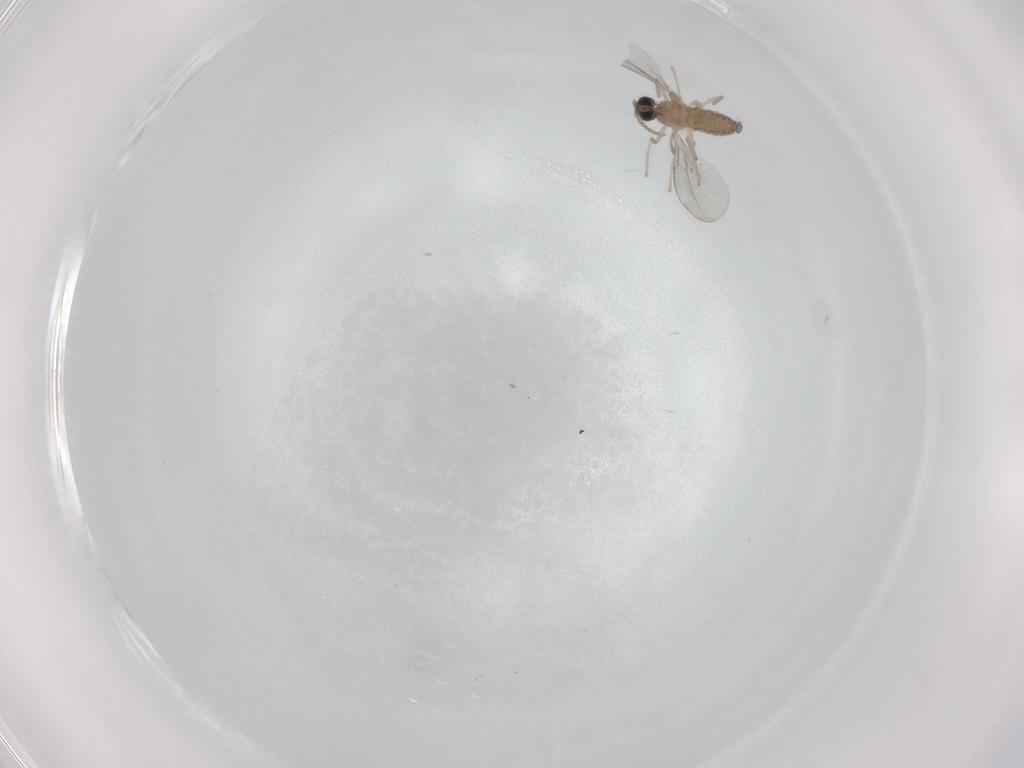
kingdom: Animalia
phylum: Arthropoda
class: Insecta
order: Diptera
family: Cecidomyiidae
